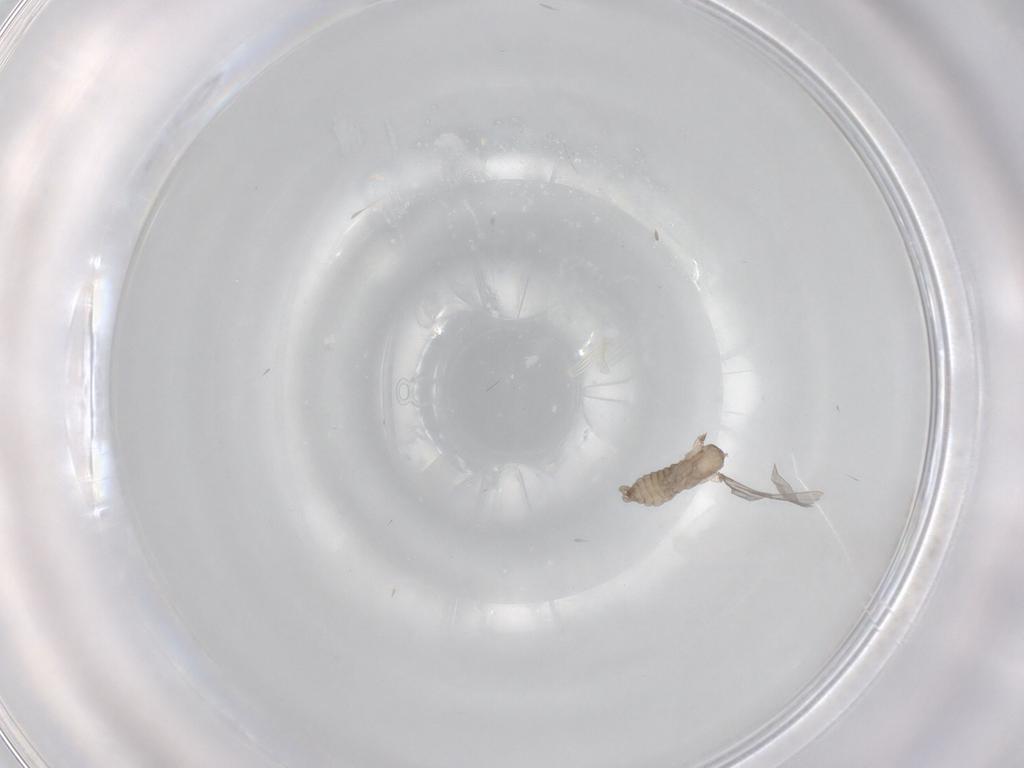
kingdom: Animalia
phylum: Arthropoda
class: Insecta
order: Diptera
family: Cecidomyiidae
